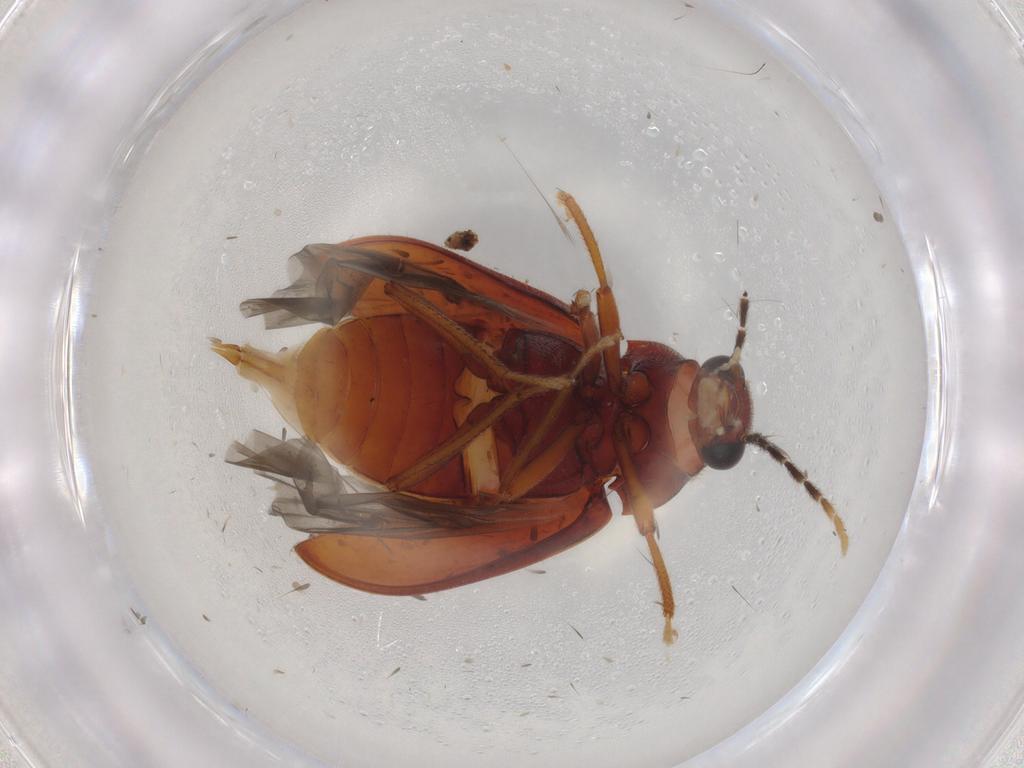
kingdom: Animalia
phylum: Arthropoda
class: Insecta
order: Coleoptera
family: Ptilodactylidae
